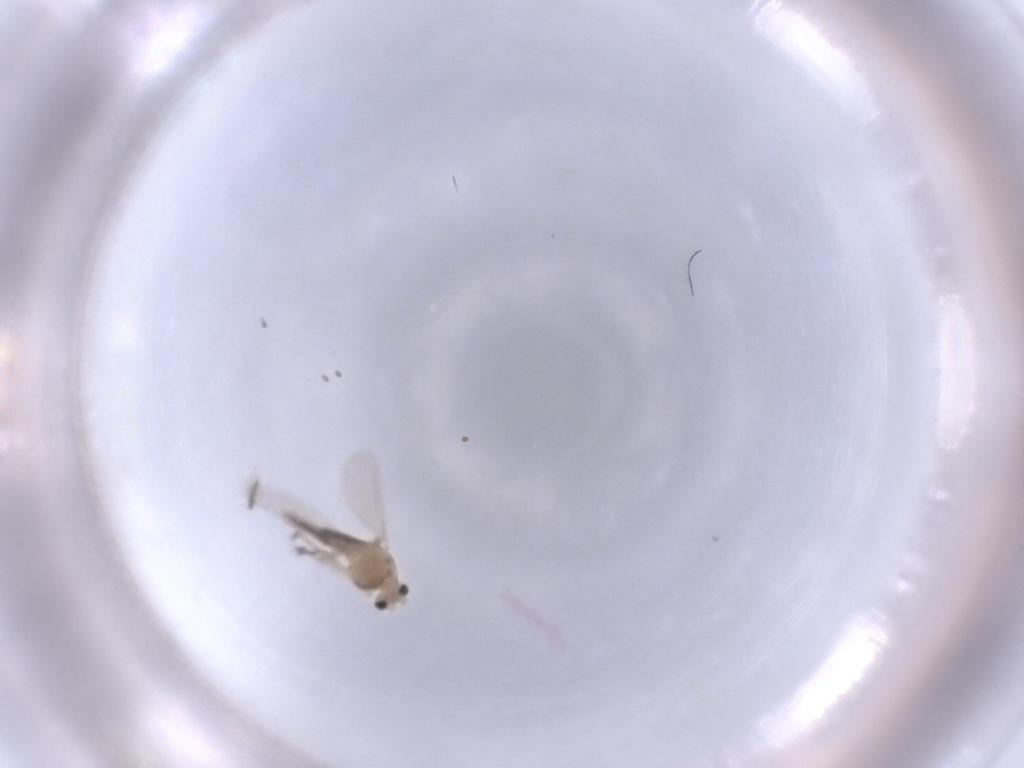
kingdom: Animalia
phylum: Arthropoda
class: Insecta
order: Diptera
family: Chironomidae
